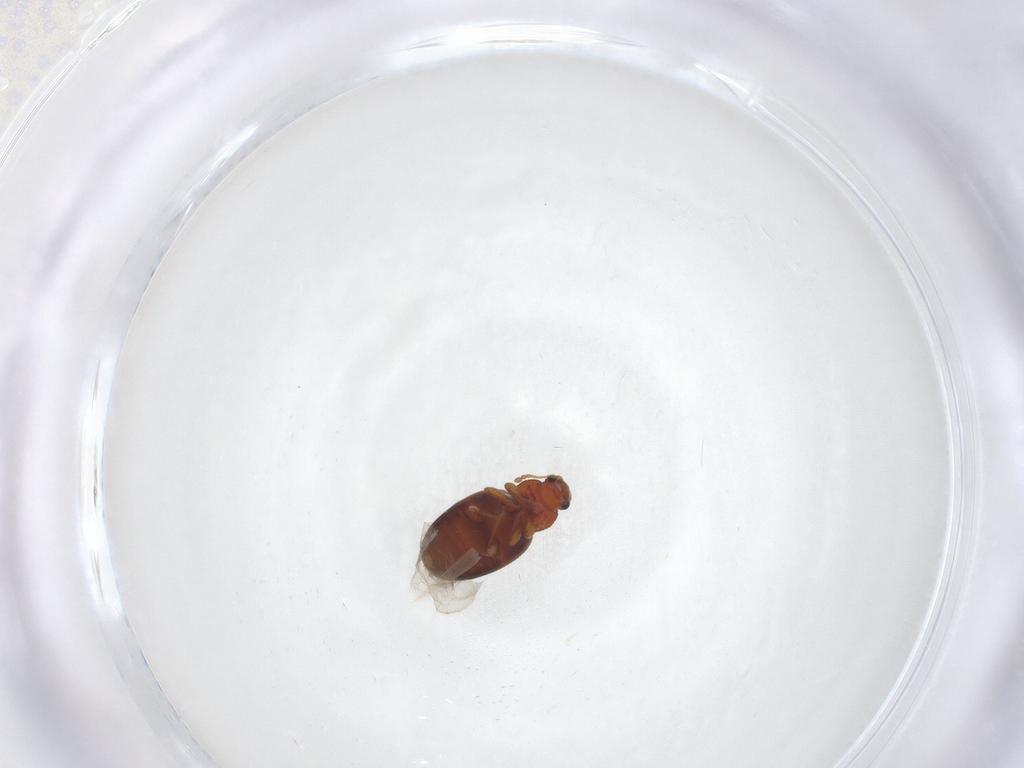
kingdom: Animalia
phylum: Arthropoda
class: Insecta
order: Coleoptera
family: Latridiidae
